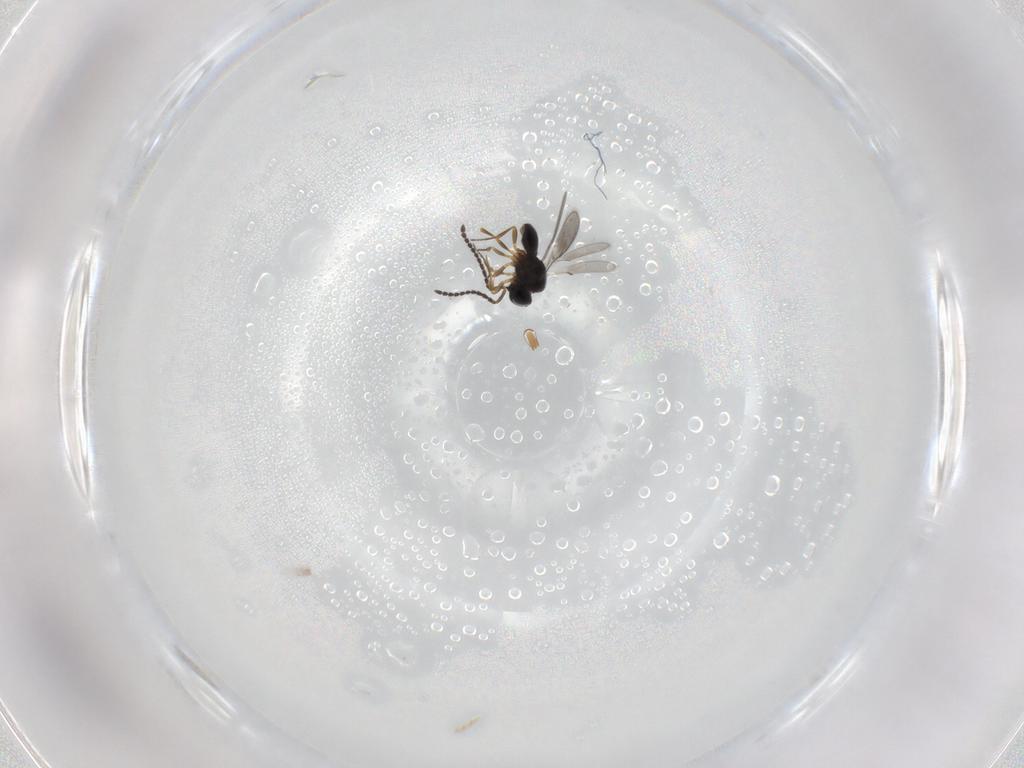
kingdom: Animalia
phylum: Arthropoda
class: Insecta
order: Hymenoptera
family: Scelionidae
